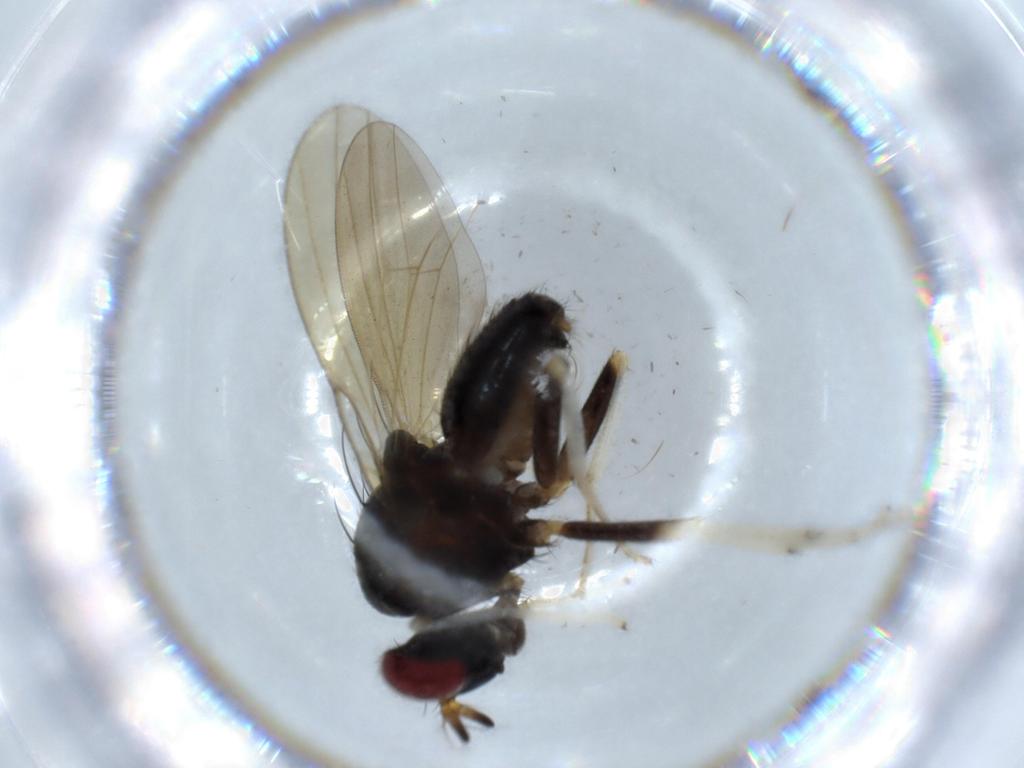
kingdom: Animalia
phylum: Arthropoda
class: Insecta
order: Diptera
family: Lauxaniidae
